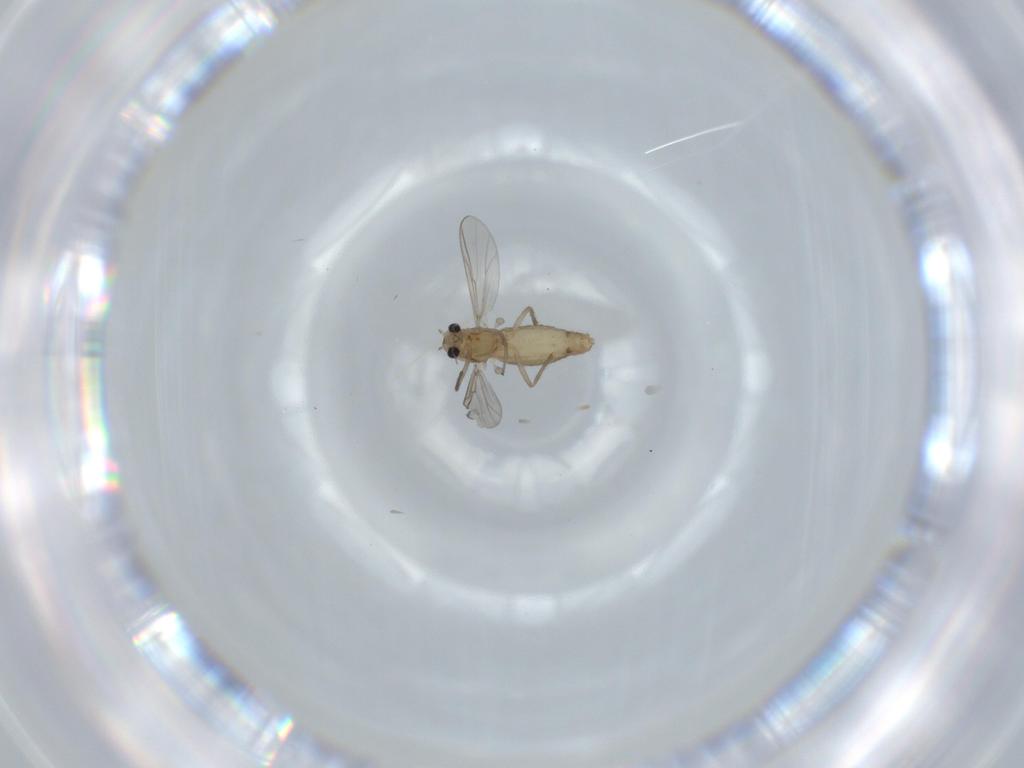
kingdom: Animalia
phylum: Arthropoda
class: Insecta
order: Diptera
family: Chironomidae
